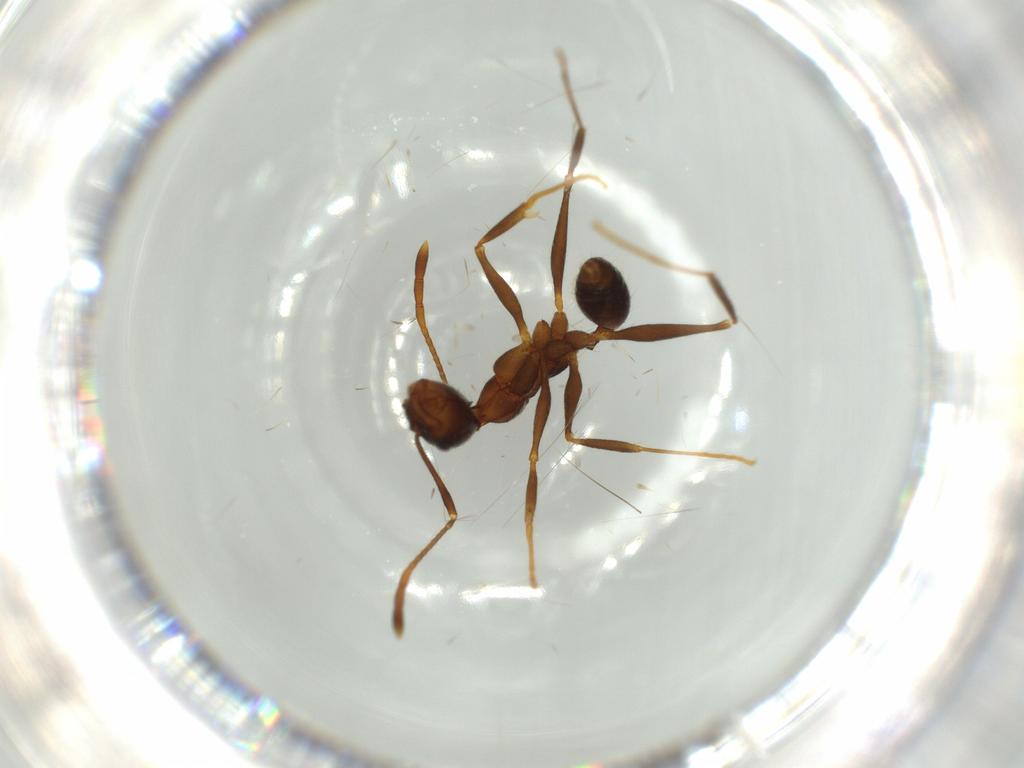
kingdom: Animalia
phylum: Arthropoda
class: Insecta
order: Hymenoptera
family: Formicidae
